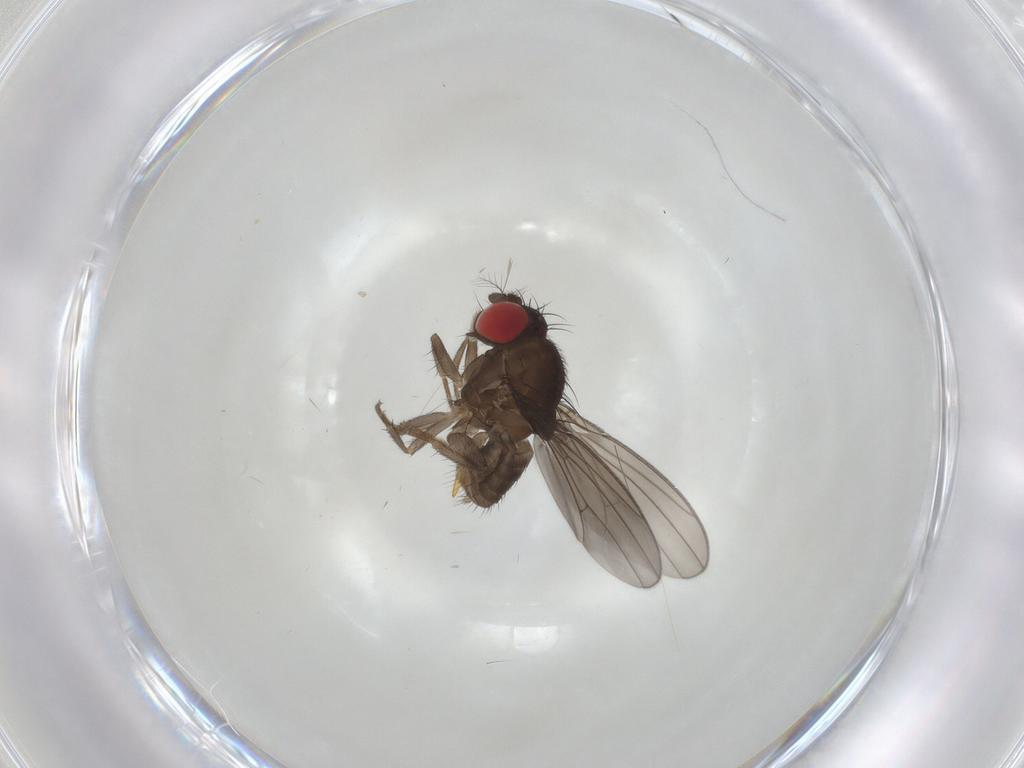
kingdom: Animalia
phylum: Arthropoda
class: Insecta
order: Diptera
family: Drosophilidae
